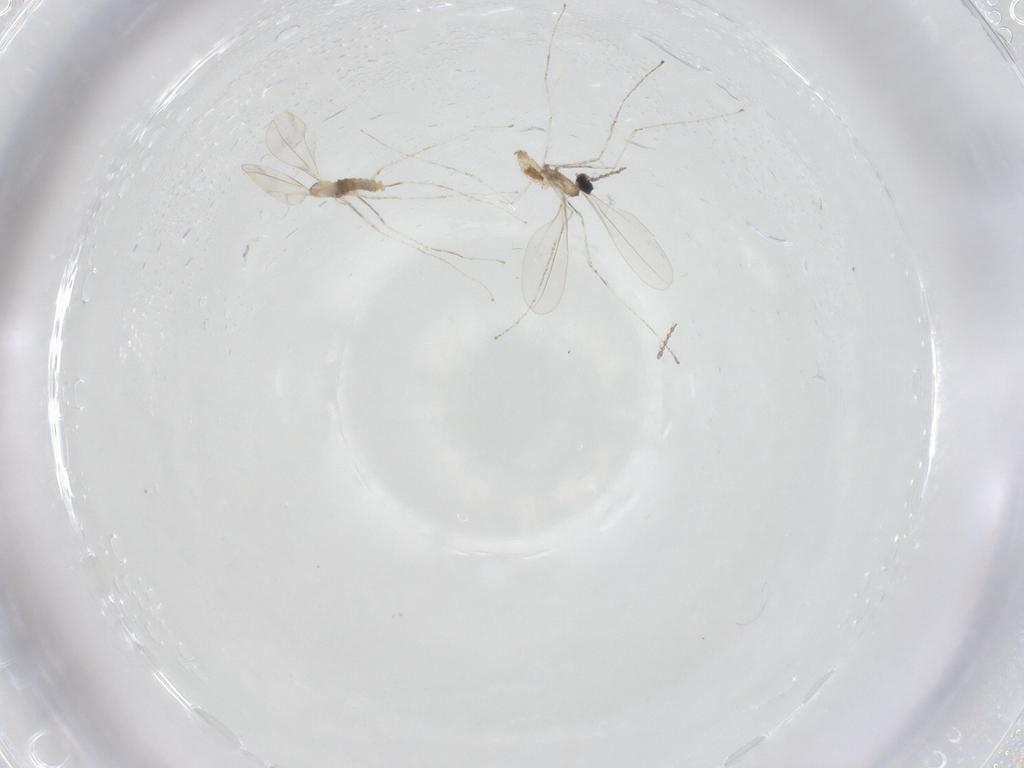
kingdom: Animalia
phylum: Arthropoda
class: Insecta
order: Diptera
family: Cecidomyiidae
